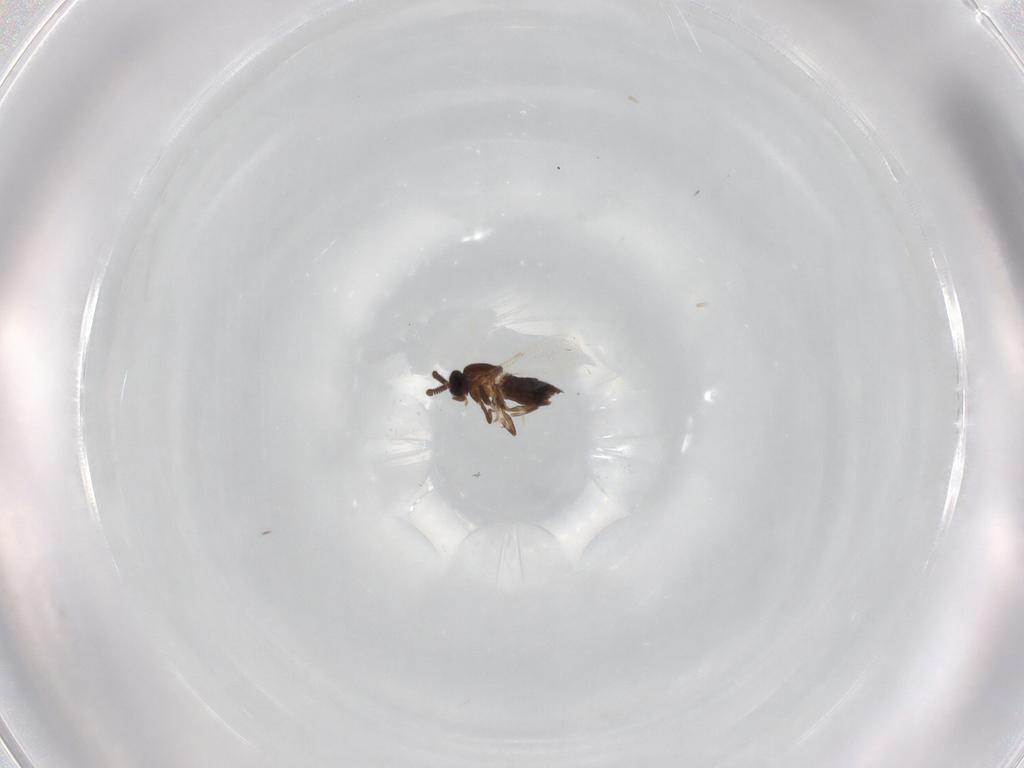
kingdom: Animalia
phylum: Arthropoda
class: Insecta
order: Diptera
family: Scatopsidae
